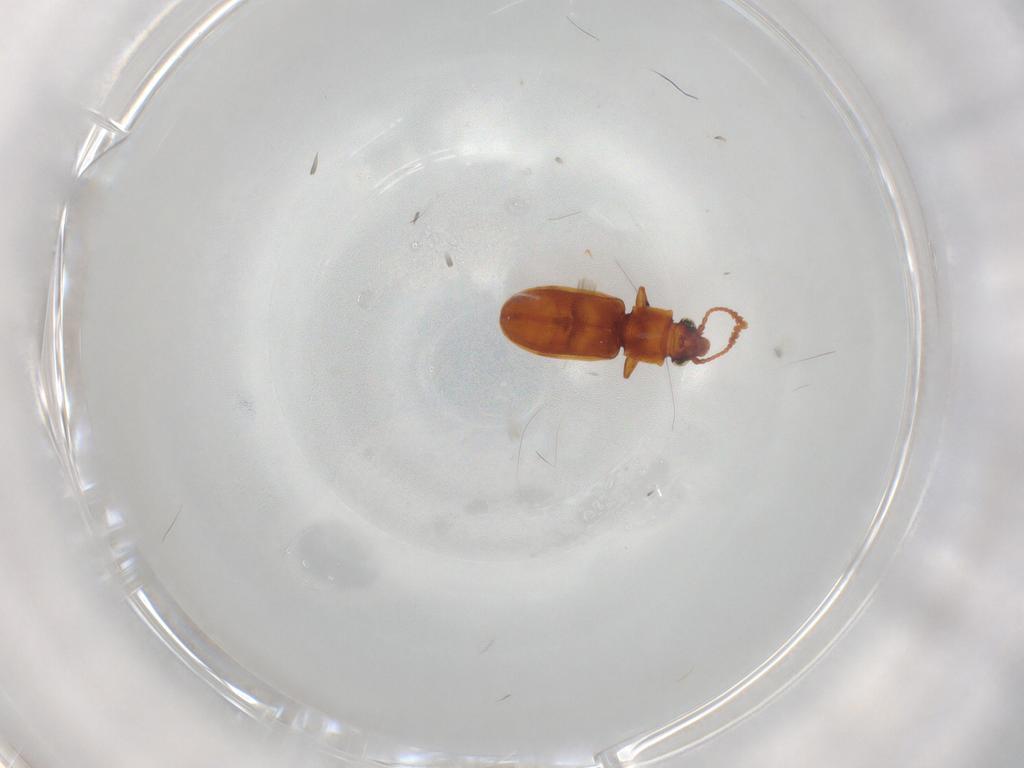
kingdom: Animalia
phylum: Arthropoda
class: Insecta
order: Coleoptera
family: Silvanidae
